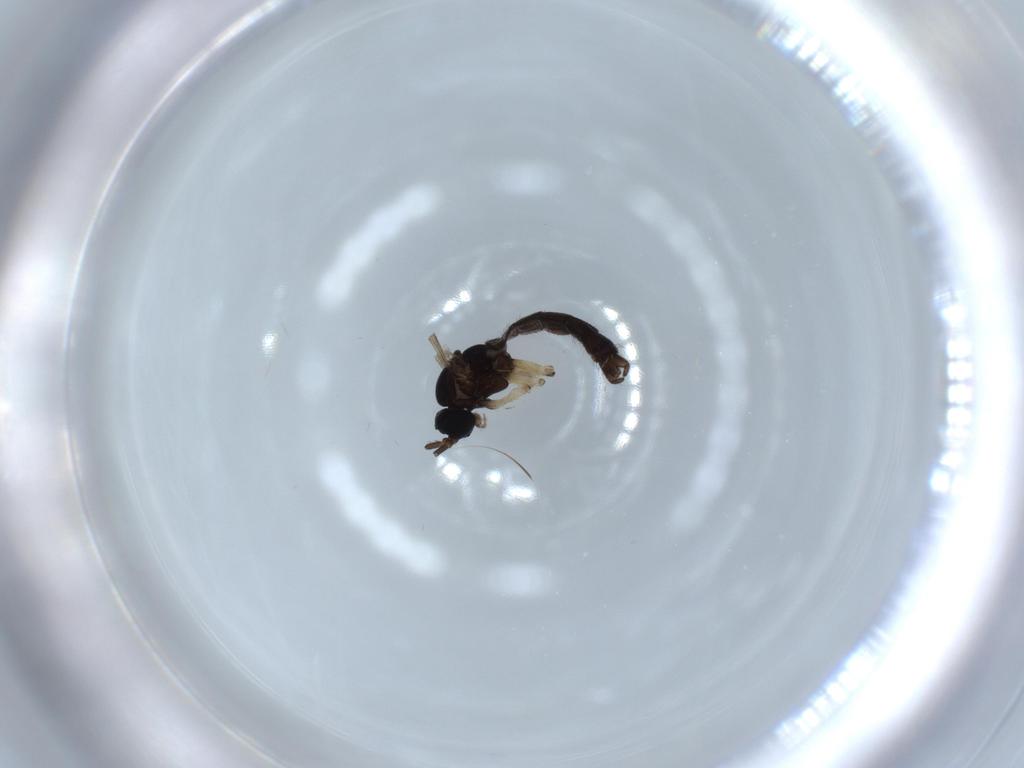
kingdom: Animalia
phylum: Arthropoda
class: Insecta
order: Diptera
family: Sciaridae
